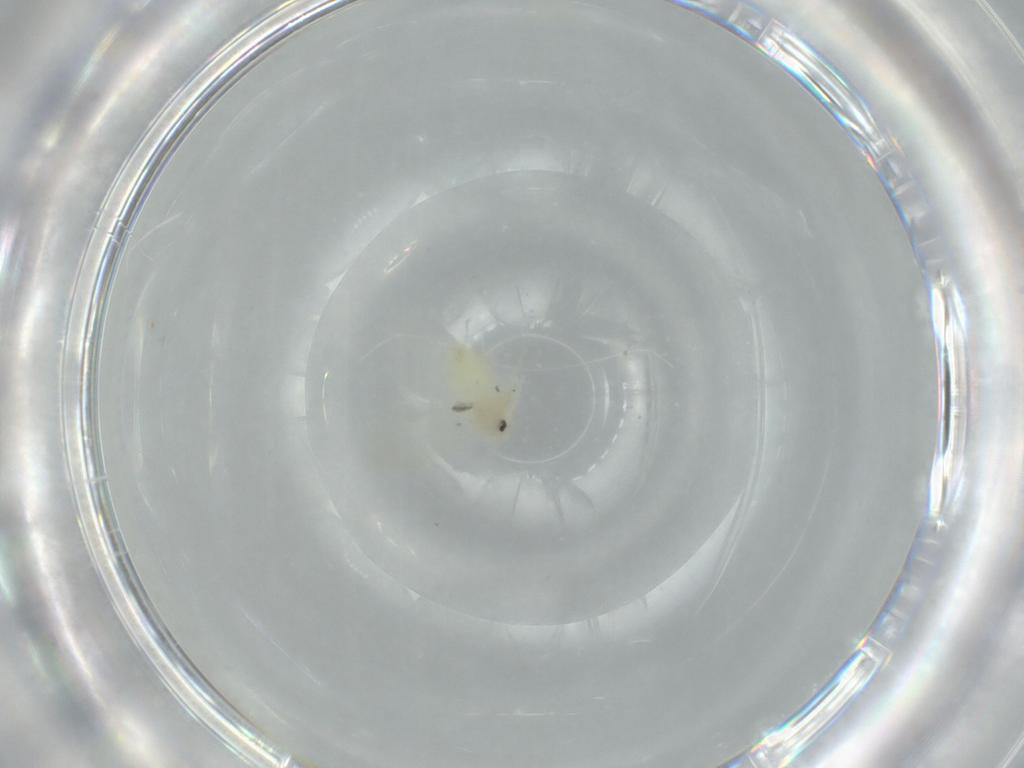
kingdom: Animalia
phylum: Arthropoda
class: Insecta
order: Hemiptera
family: Aleyrodidae
